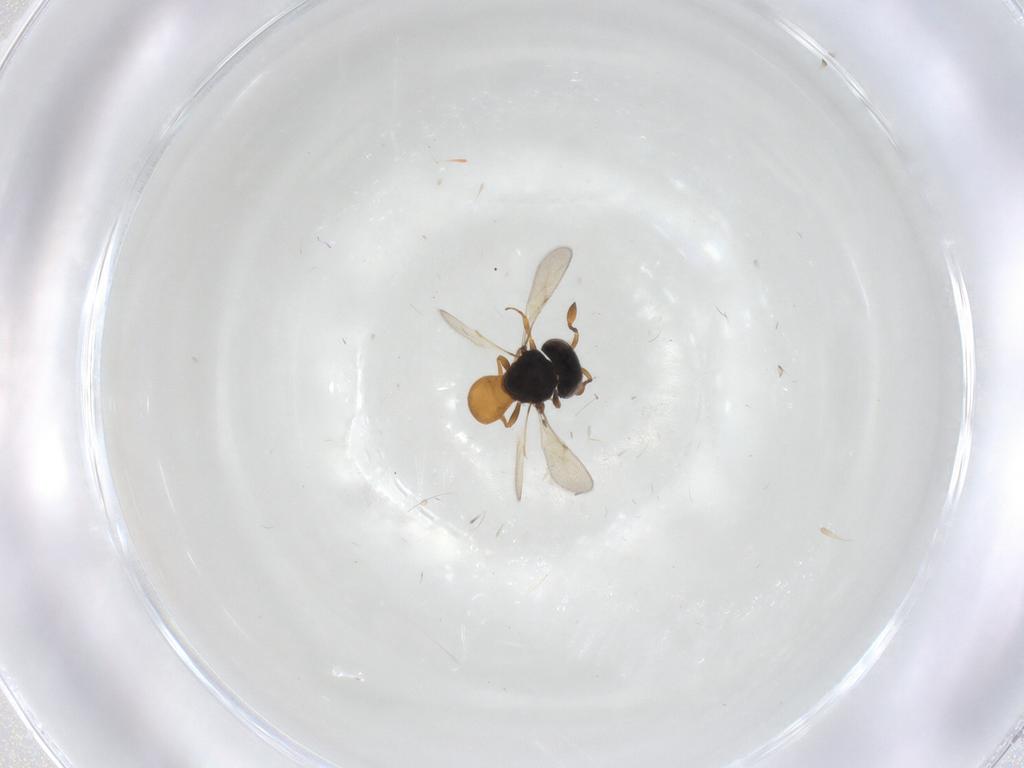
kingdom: Animalia
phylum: Arthropoda
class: Insecta
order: Hymenoptera
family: Scelionidae
